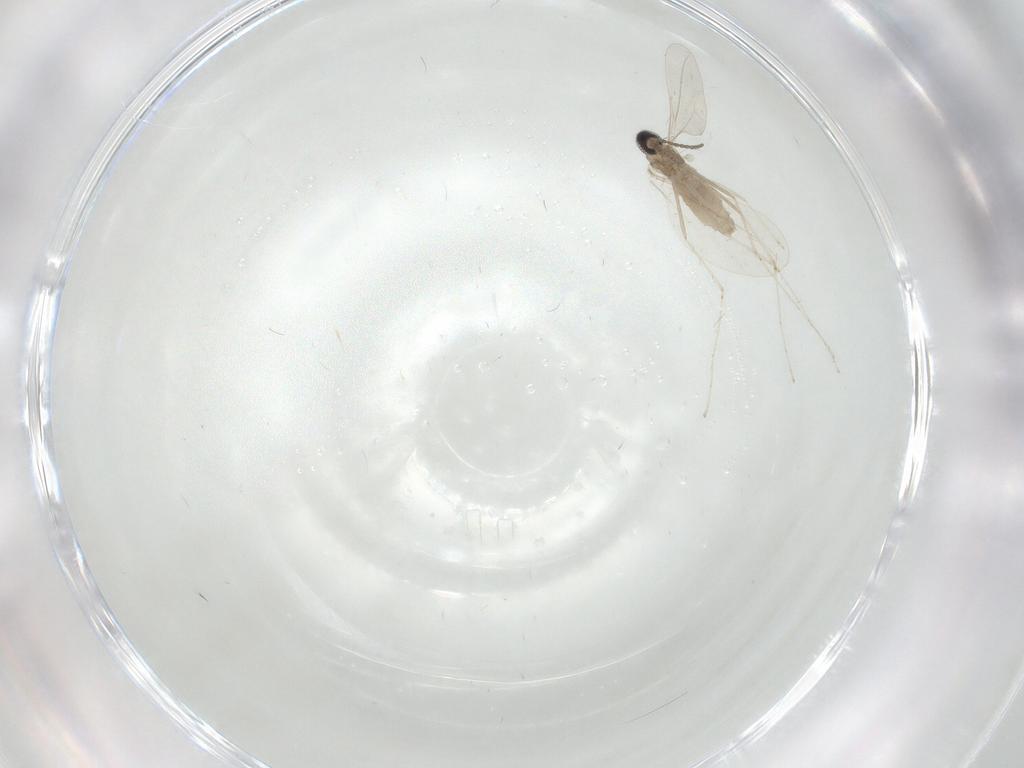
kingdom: Animalia
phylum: Arthropoda
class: Insecta
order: Diptera
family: Cecidomyiidae
